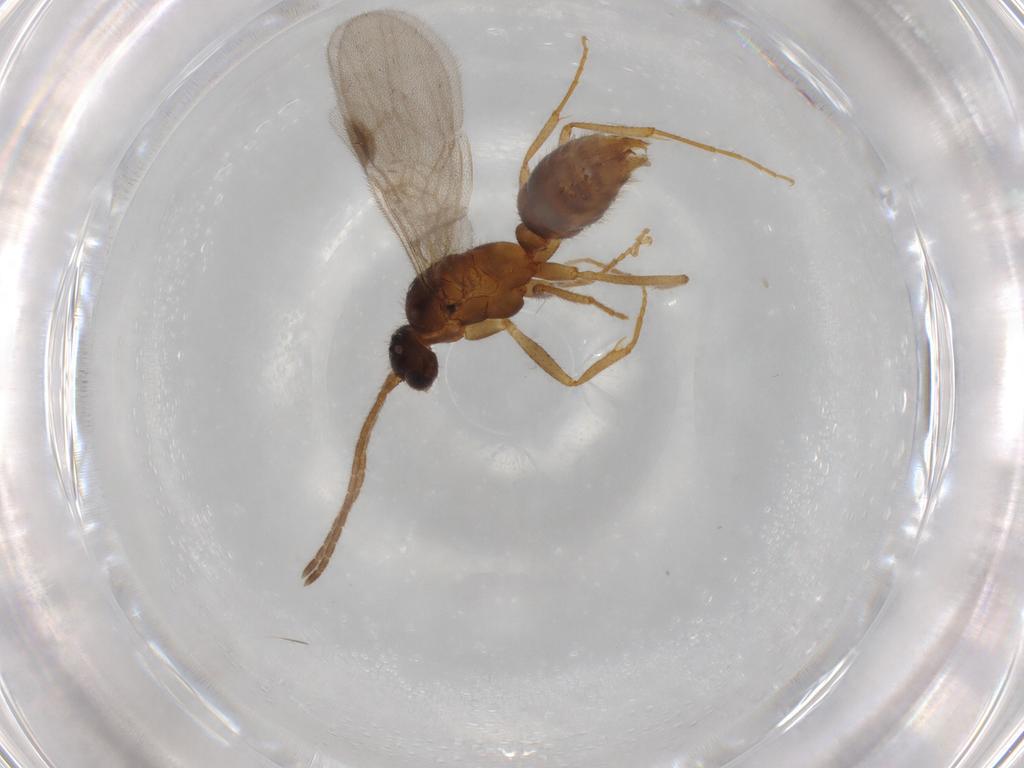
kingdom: Animalia
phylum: Arthropoda
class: Insecta
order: Hymenoptera
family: Formicidae
